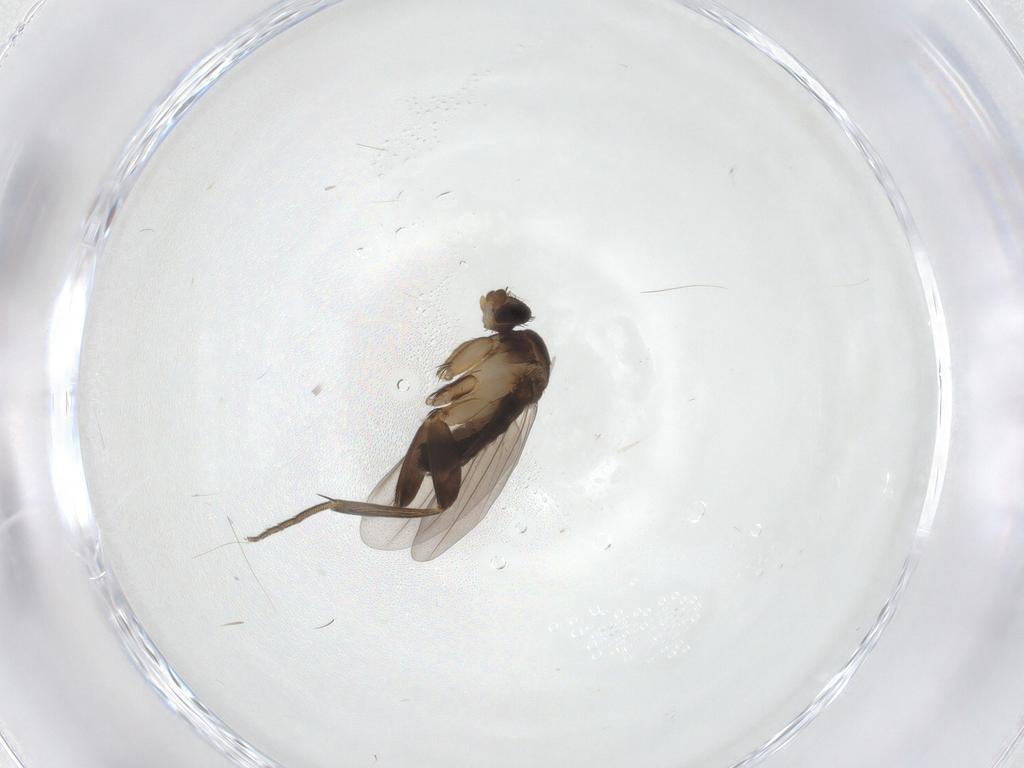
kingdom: Animalia
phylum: Arthropoda
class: Insecta
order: Diptera
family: Phoridae
